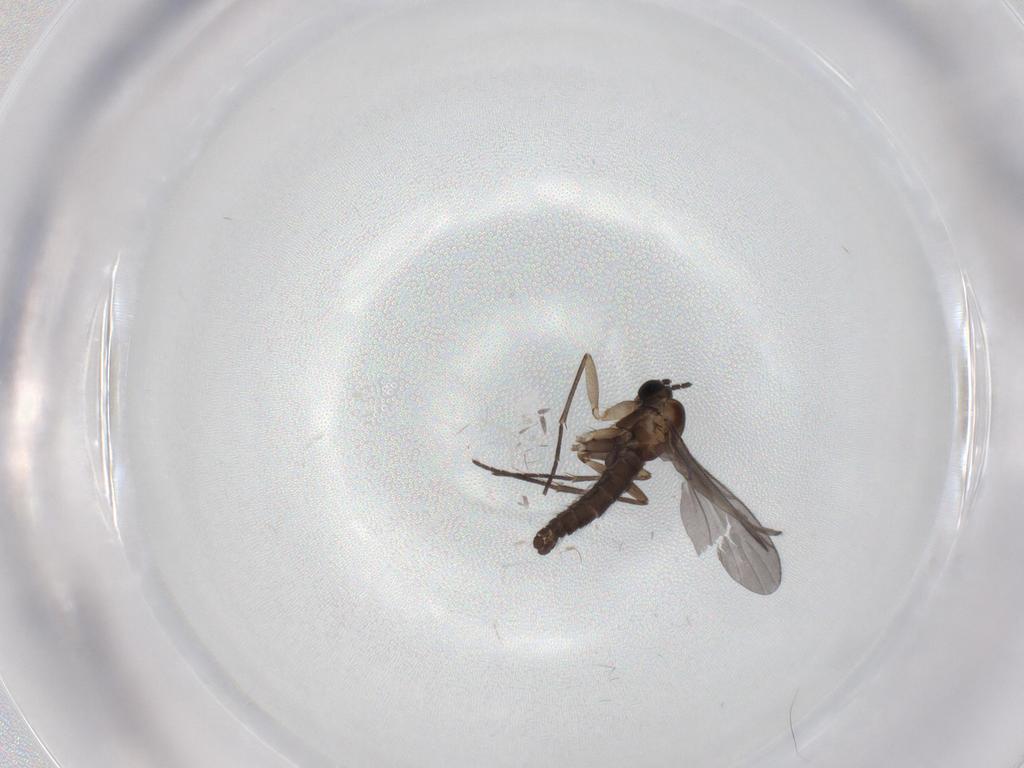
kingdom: Animalia
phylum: Arthropoda
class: Insecta
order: Diptera
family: Sciaridae
